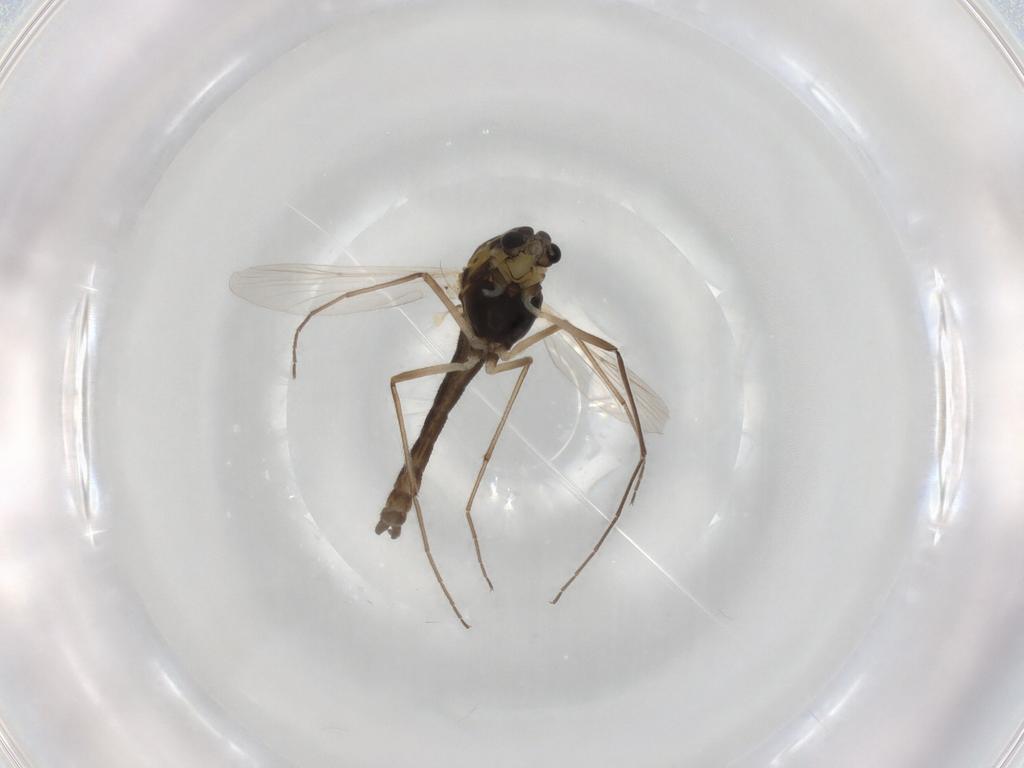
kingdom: Animalia
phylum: Arthropoda
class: Insecta
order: Diptera
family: Chironomidae
